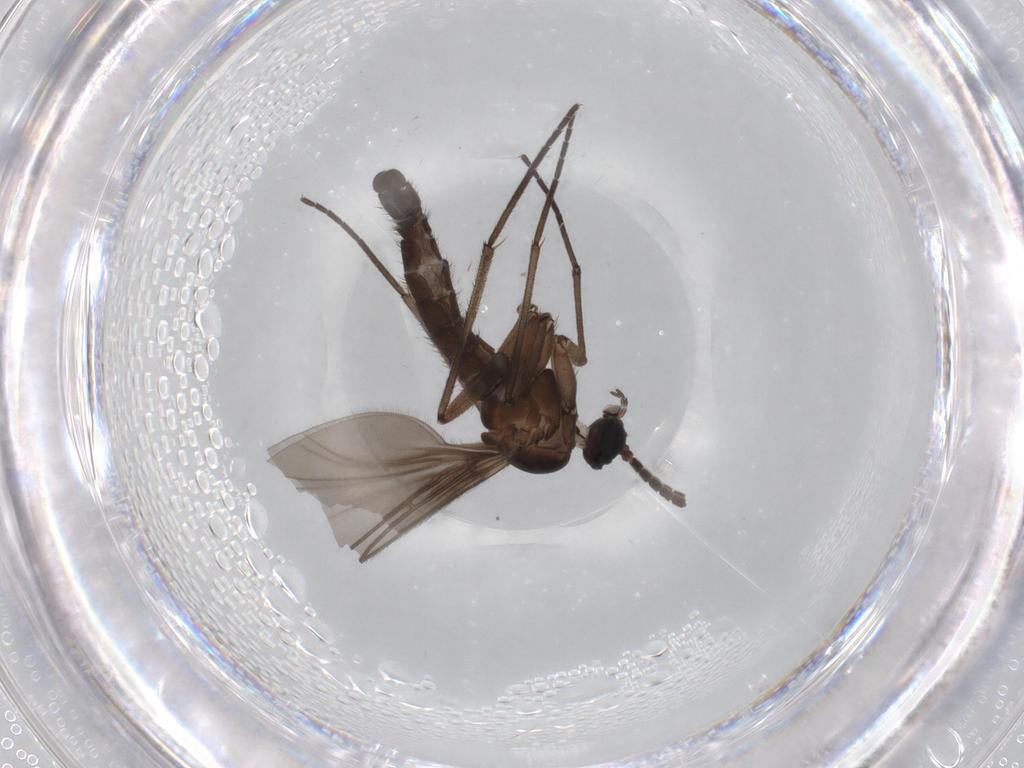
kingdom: Animalia
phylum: Arthropoda
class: Insecta
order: Diptera
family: Sciaridae
